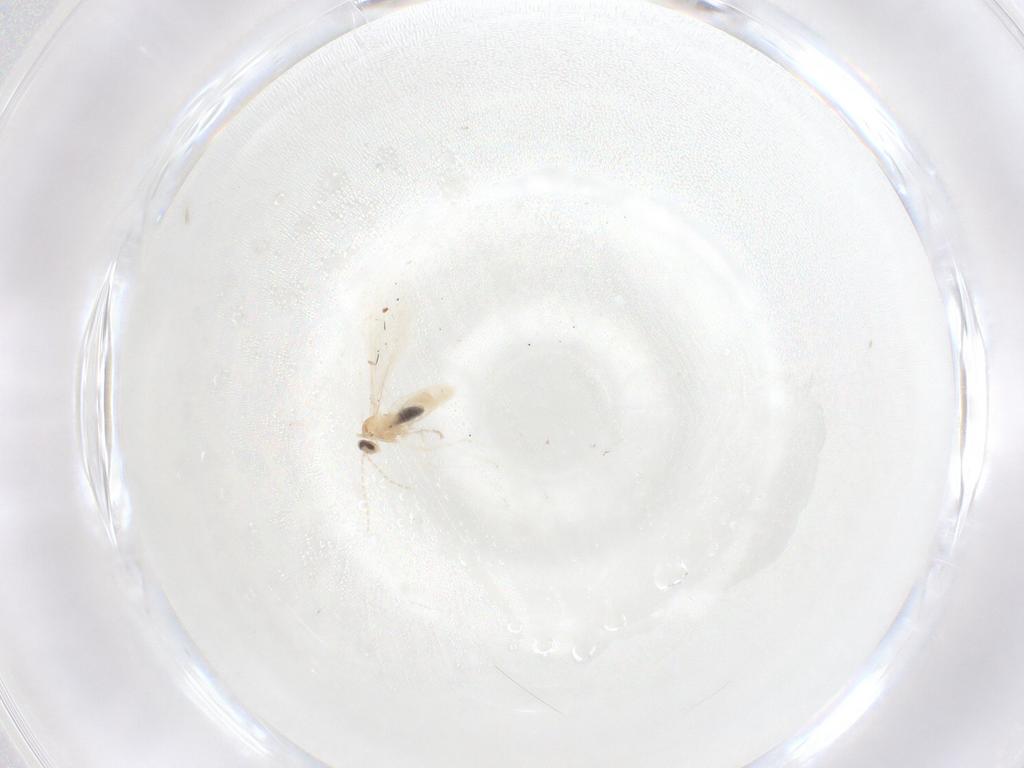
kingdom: Animalia
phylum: Arthropoda
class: Insecta
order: Diptera
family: Cecidomyiidae
